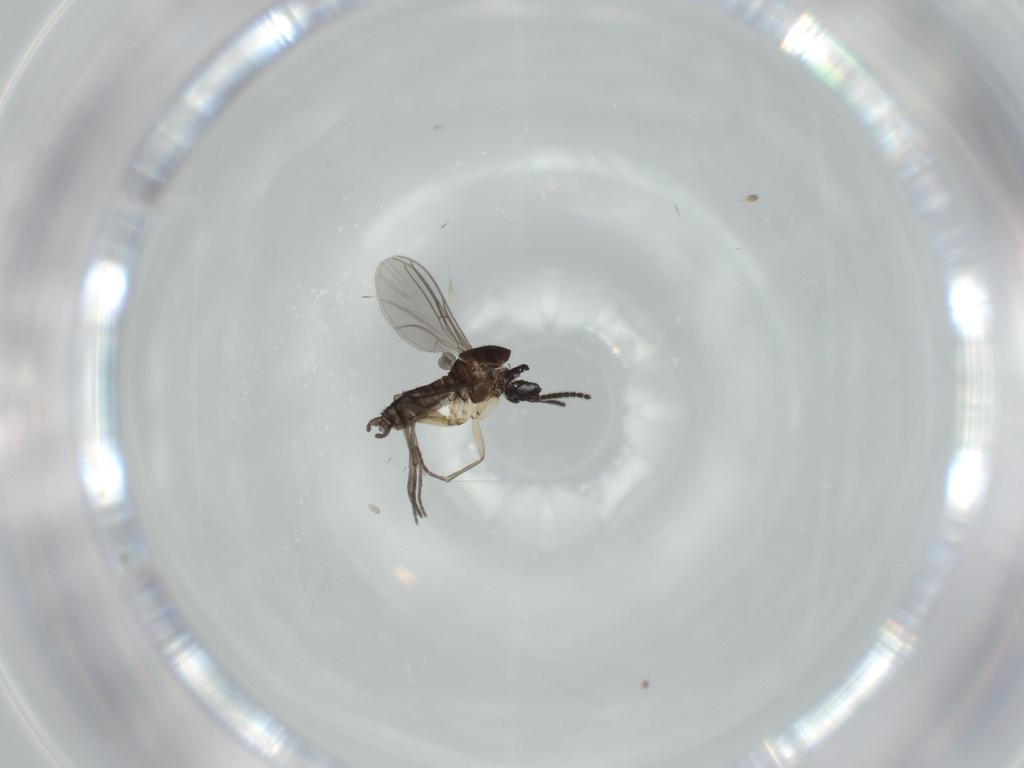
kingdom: Animalia
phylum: Arthropoda
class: Insecta
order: Diptera
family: Sciaridae
